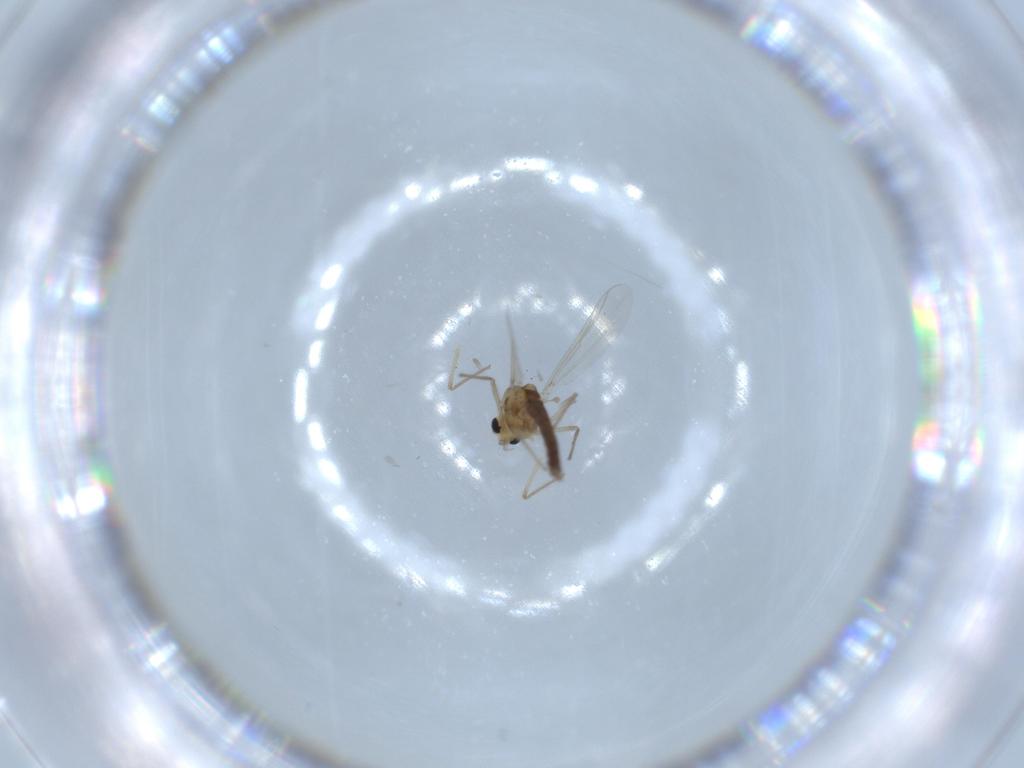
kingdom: Animalia
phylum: Arthropoda
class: Insecta
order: Diptera
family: Chironomidae
